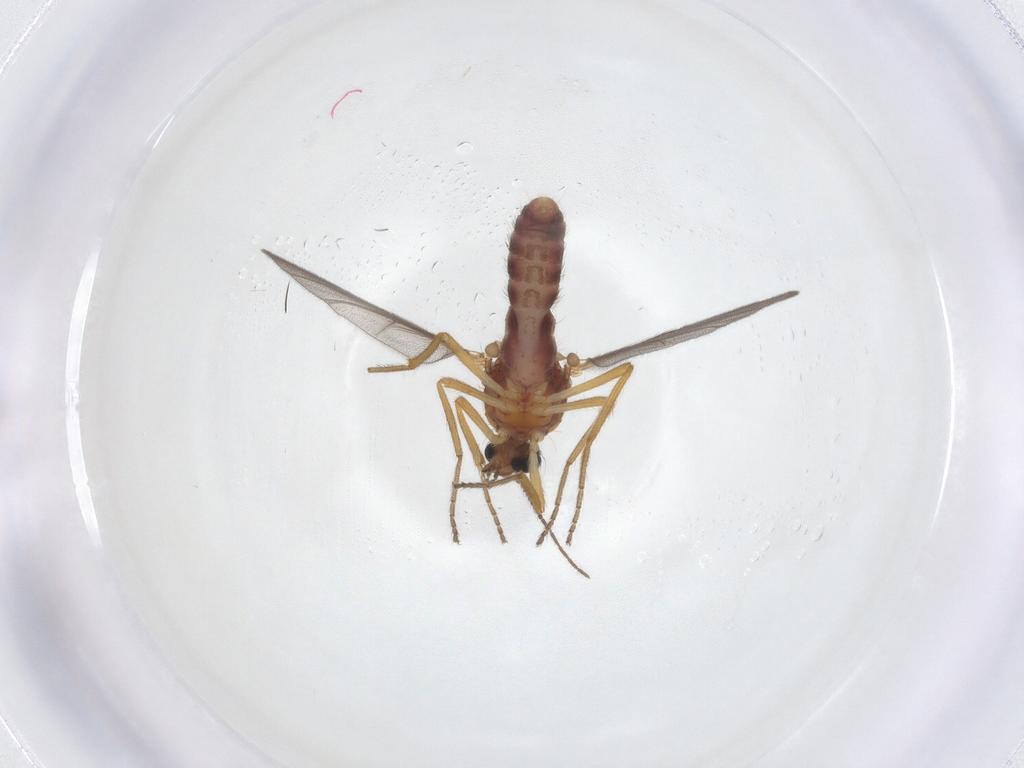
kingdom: Animalia
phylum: Arthropoda
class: Insecta
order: Diptera
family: Ceratopogonidae
